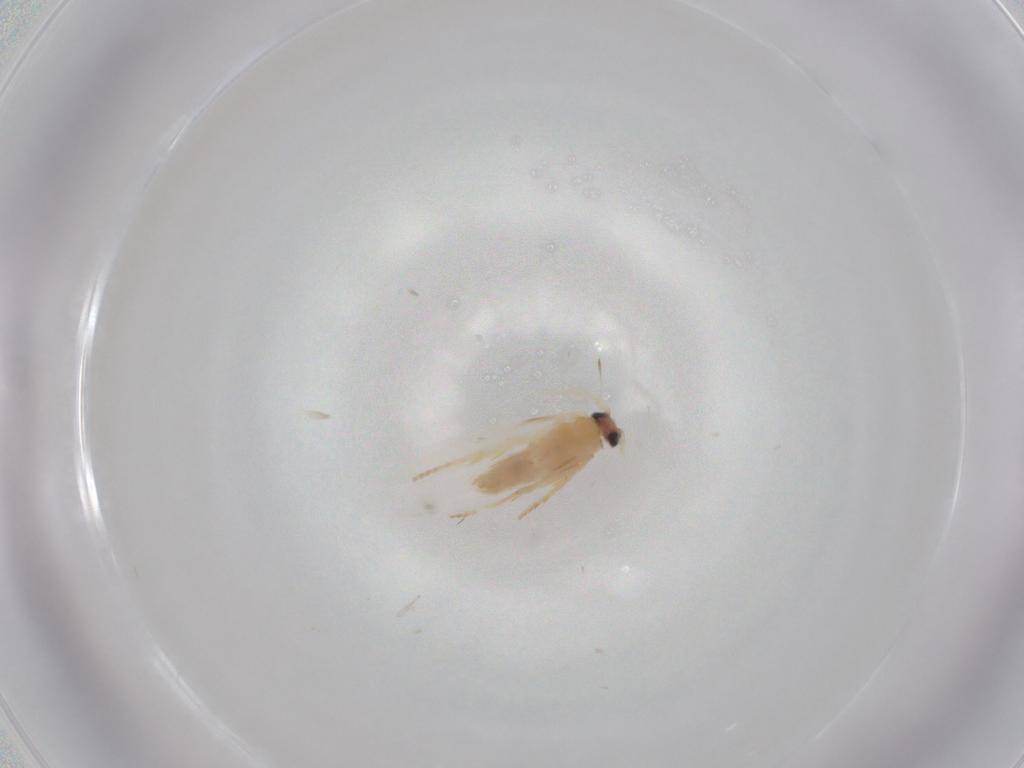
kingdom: Animalia
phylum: Arthropoda
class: Insecta
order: Lepidoptera
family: Nepticulidae
